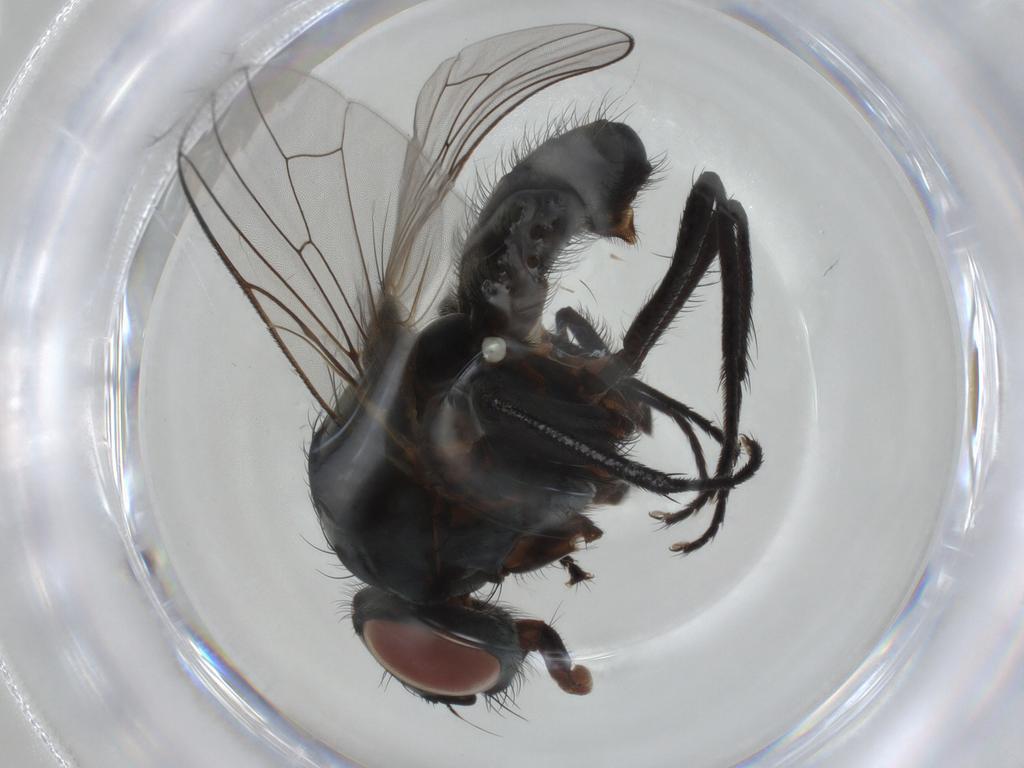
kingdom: Animalia
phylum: Arthropoda
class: Insecta
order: Diptera
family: Anthomyiidae
